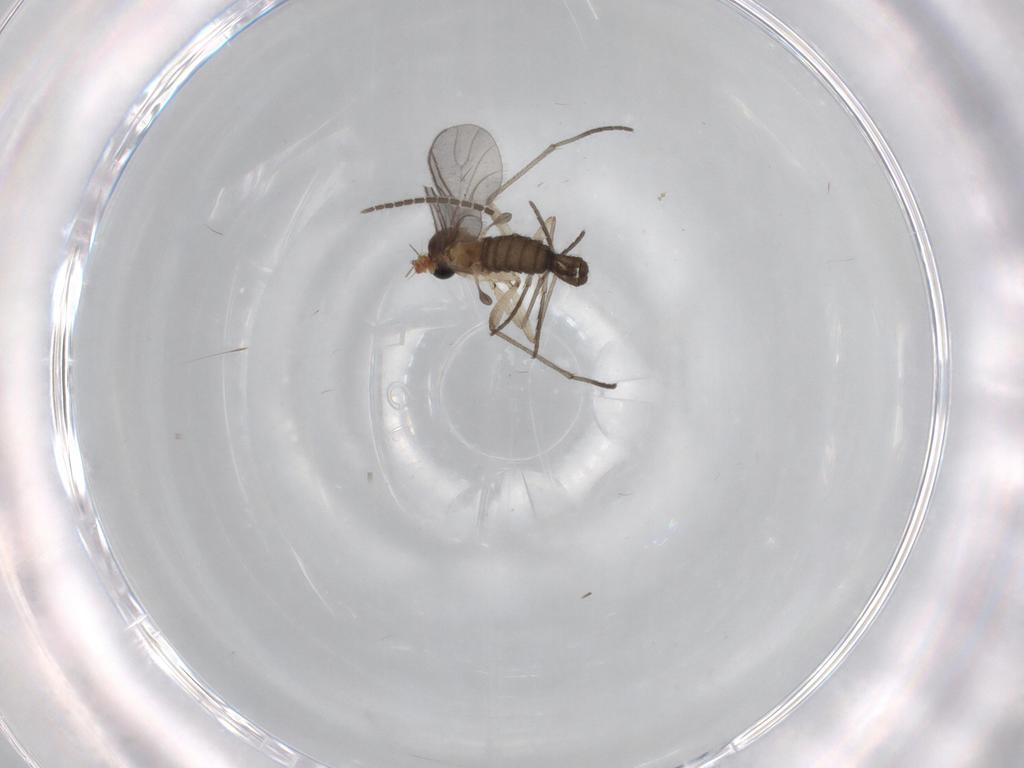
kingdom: Animalia
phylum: Arthropoda
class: Insecta
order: Diptera
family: Sciaridae
